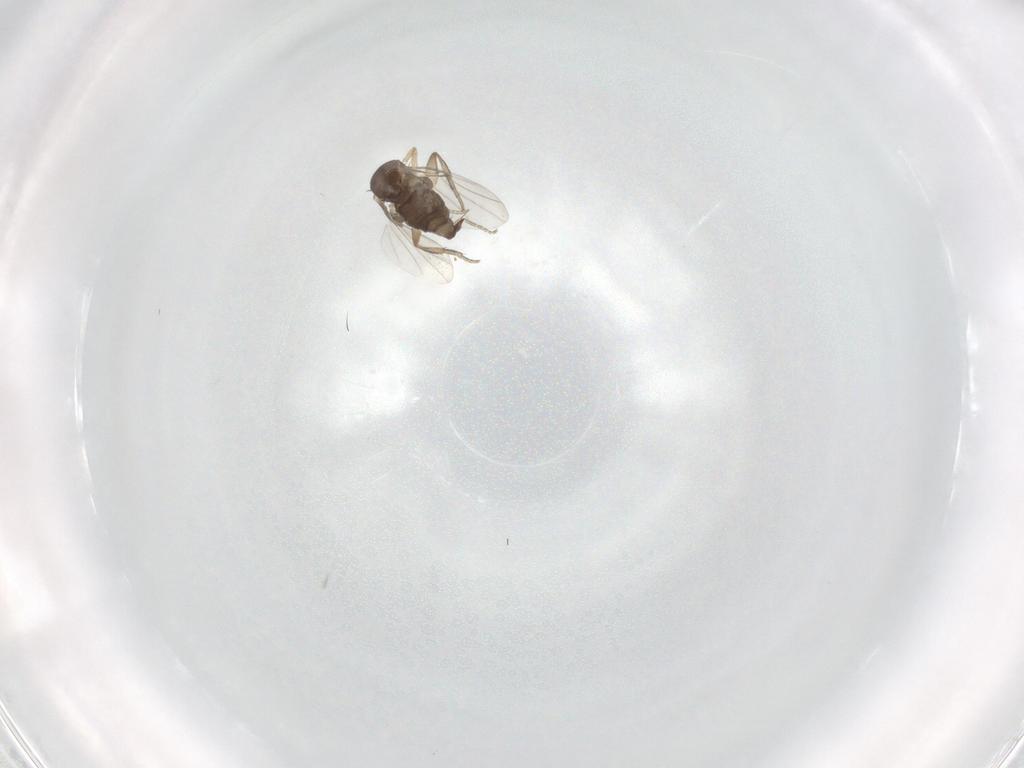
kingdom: Animalia
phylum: Arthropoda
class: Insecta
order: Diptera
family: Phoridae
